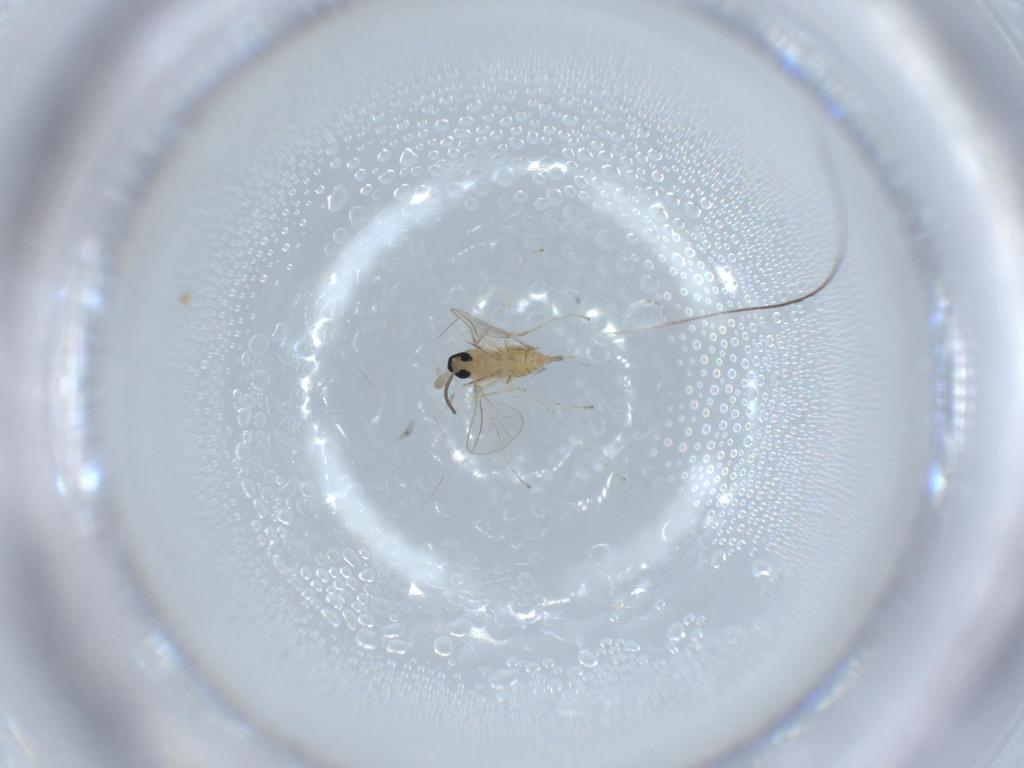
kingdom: Animalia
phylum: Arthropoda
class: Insecta
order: Diptera
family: Cecidomyiidae
